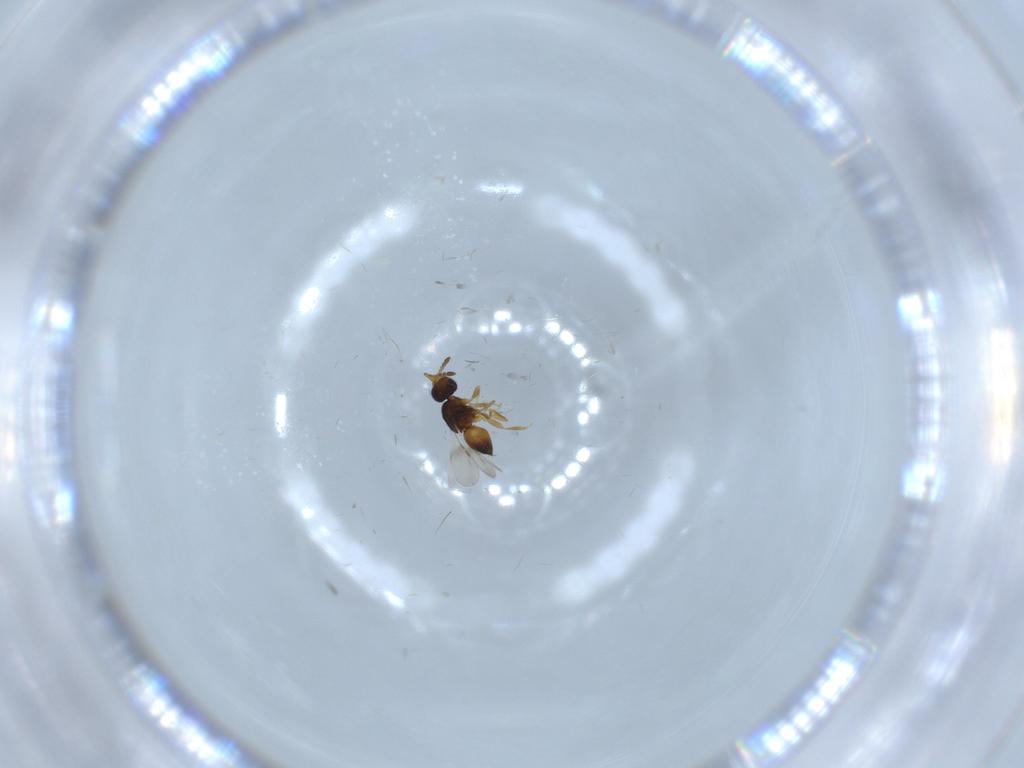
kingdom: Animalia
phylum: Arthropoda
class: Insecta
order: Hymenoptera
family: Ceraphronidae
